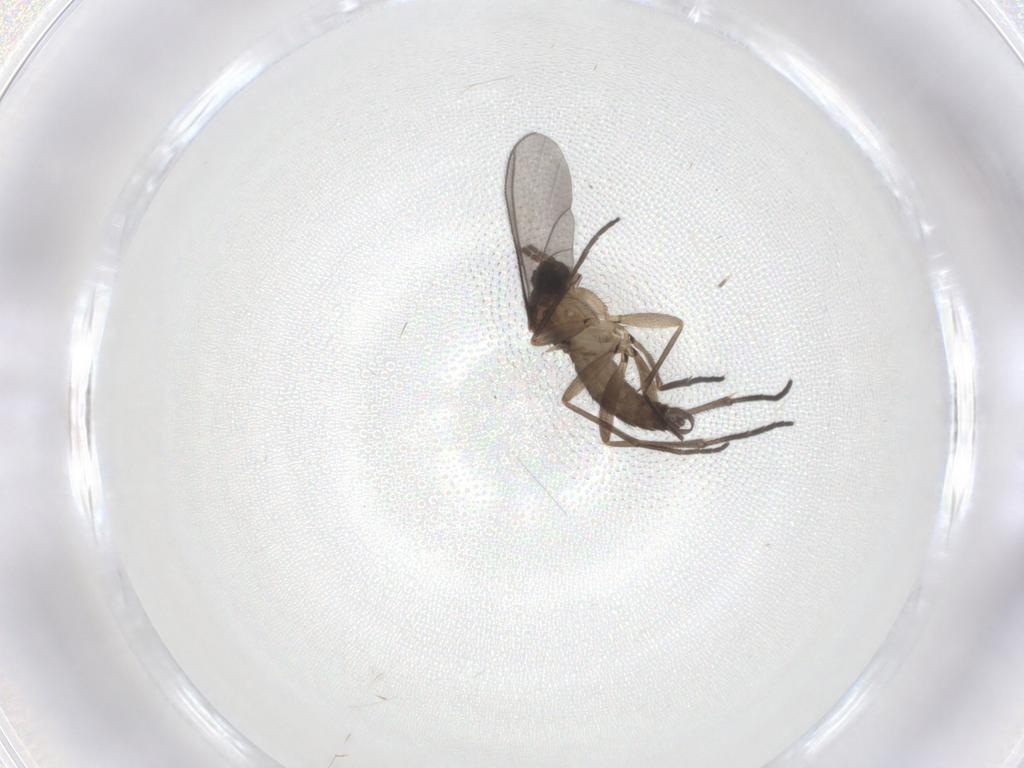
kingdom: Animalia
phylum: Arthropoda
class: Insecta
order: Diptera
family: Sciaridae
